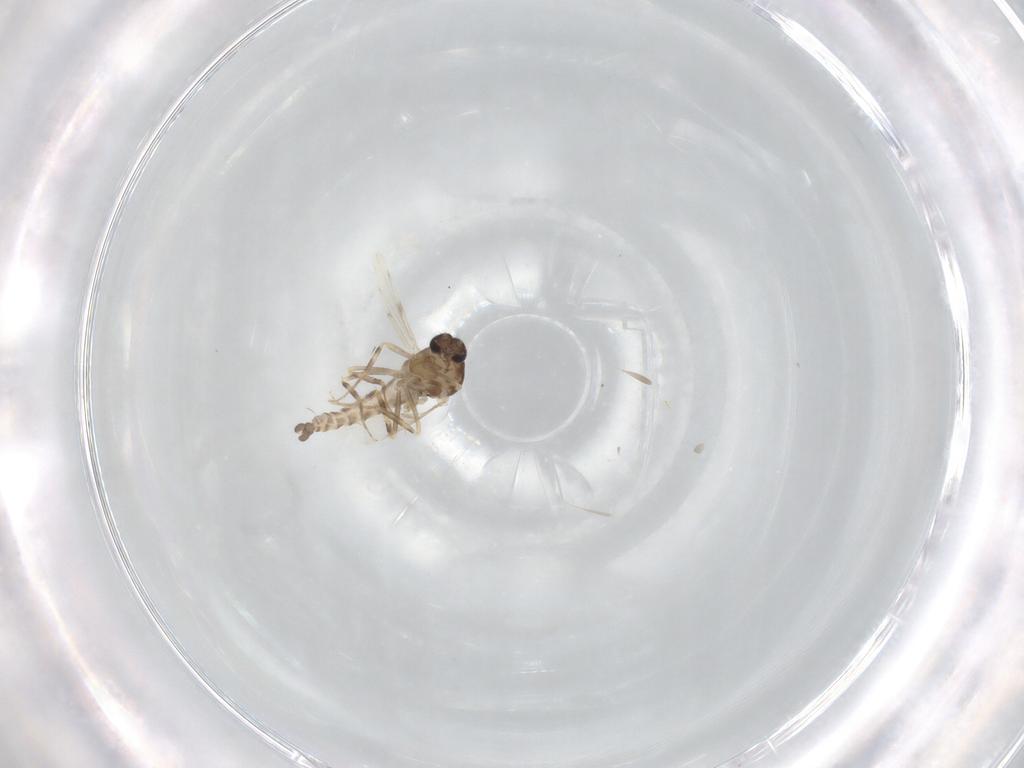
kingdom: Animalia
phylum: Arthropoda
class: Insecta
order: Diptera
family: Ceratopogonidae
